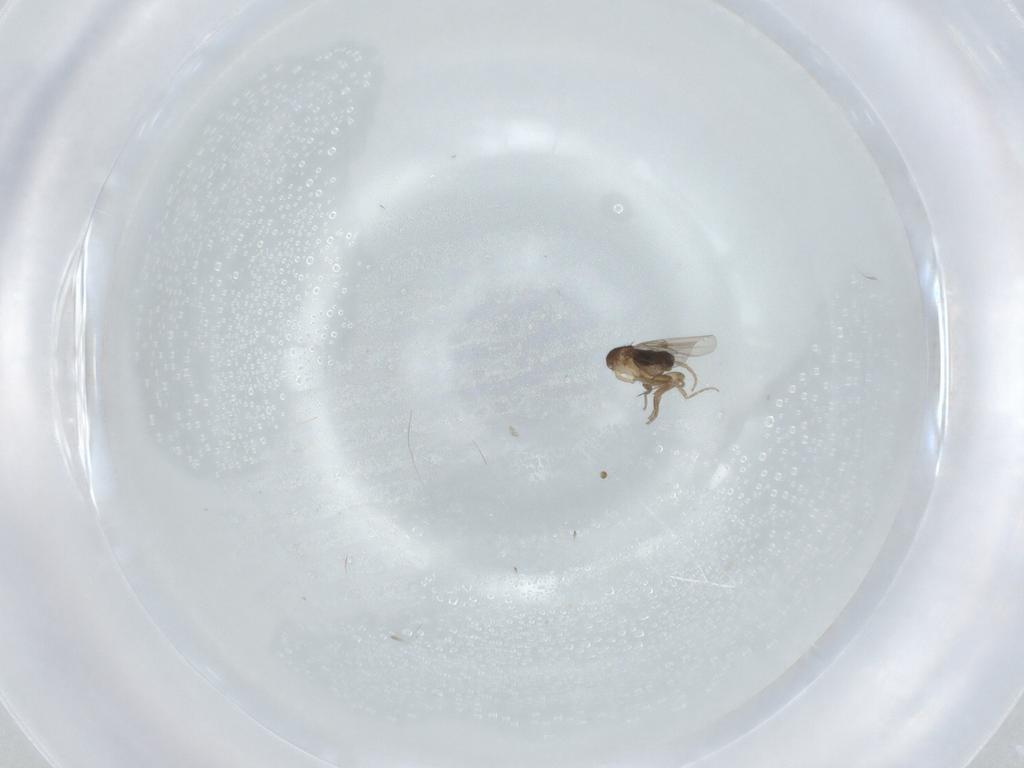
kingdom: Animalia
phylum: Arthropoda
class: Insecta
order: Diptera
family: Phoridae
